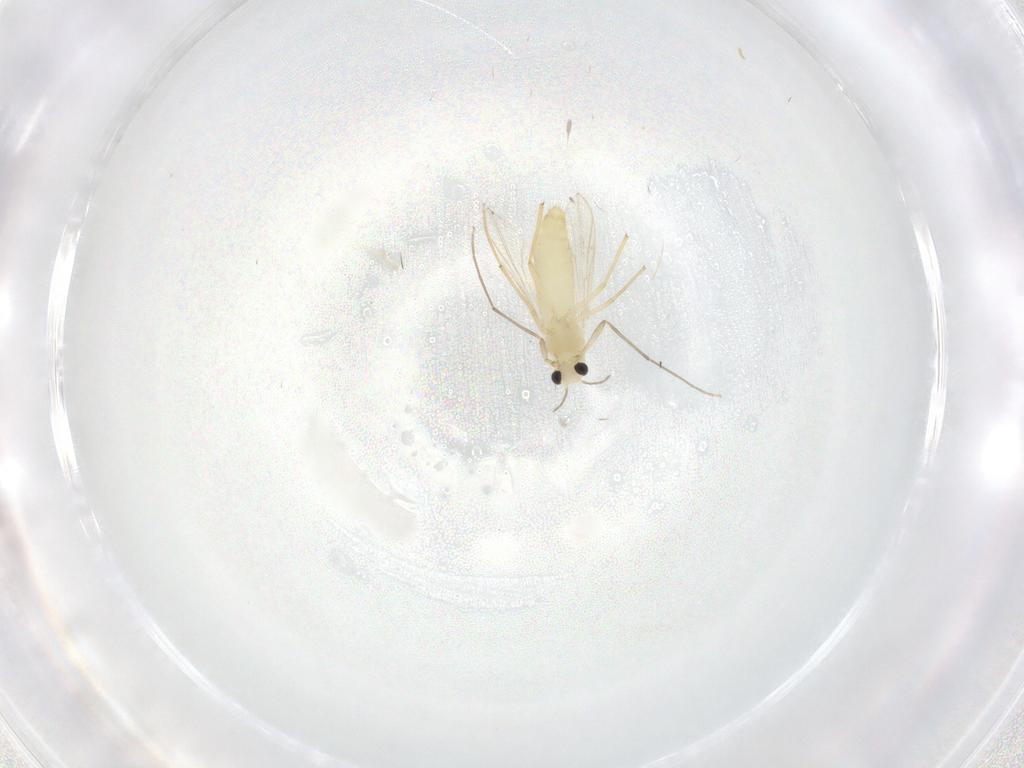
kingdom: Animalia
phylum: Arthropoda
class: Insecta
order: Diptera
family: Chironomidae
